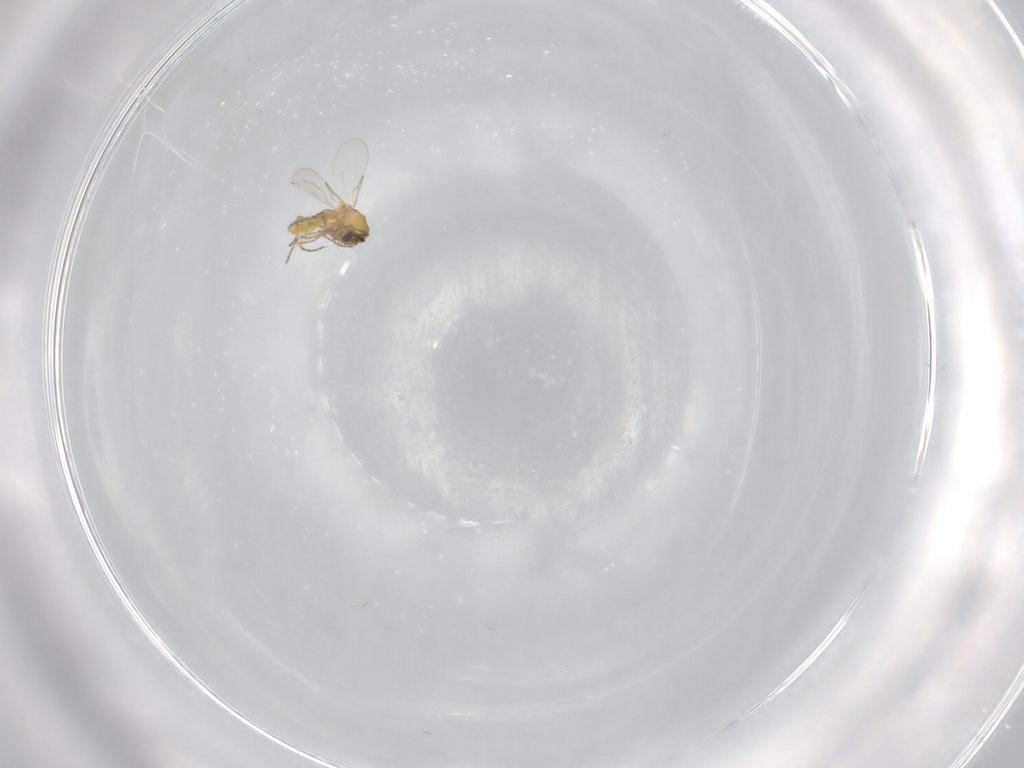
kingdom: Animalia
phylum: Arthropoda
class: Insecta
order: Diptera
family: Ceratopogonidae
